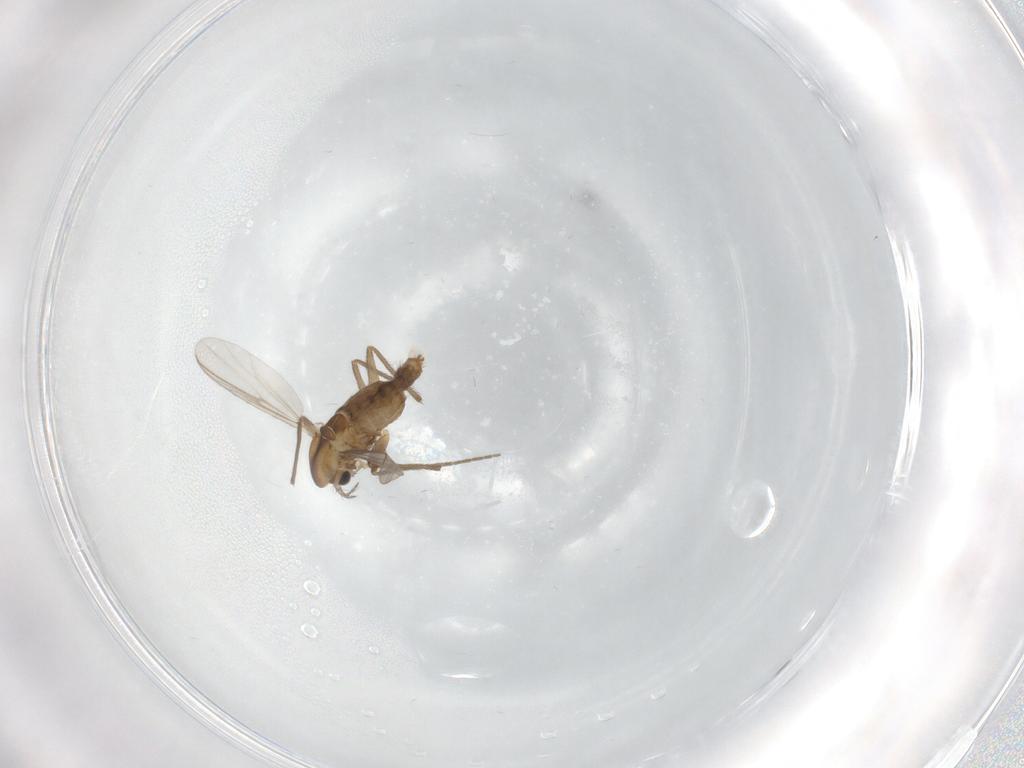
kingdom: Animalia
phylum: Arthropoda
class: Insecta
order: Diptera
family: Chironomidae
